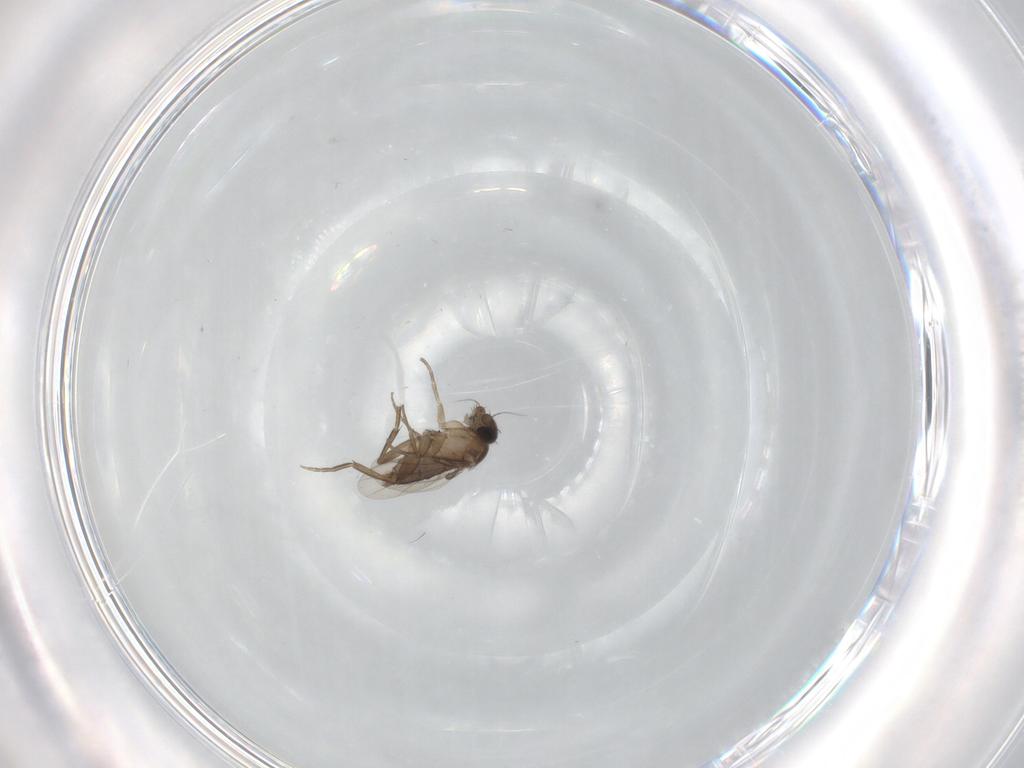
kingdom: Animalia
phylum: Arthropoda
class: Insecta
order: Diptera
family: Phoridae
